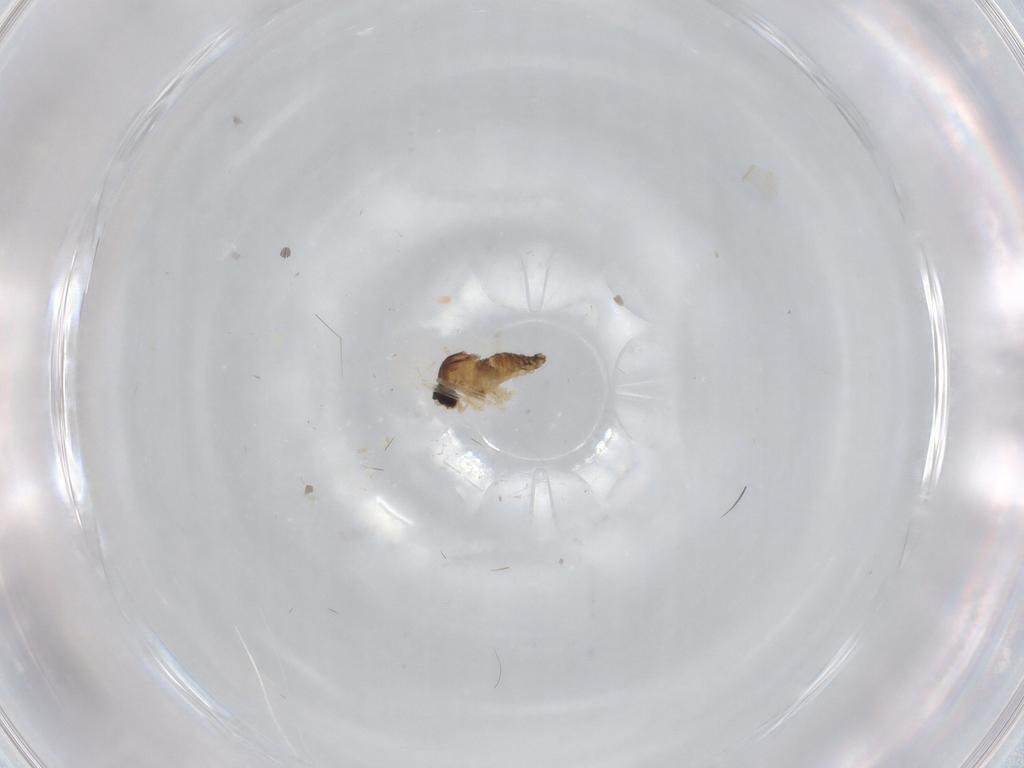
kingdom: Animalia
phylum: Arthropoda
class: Insecta
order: Diptera
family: Cecidomyiidae
